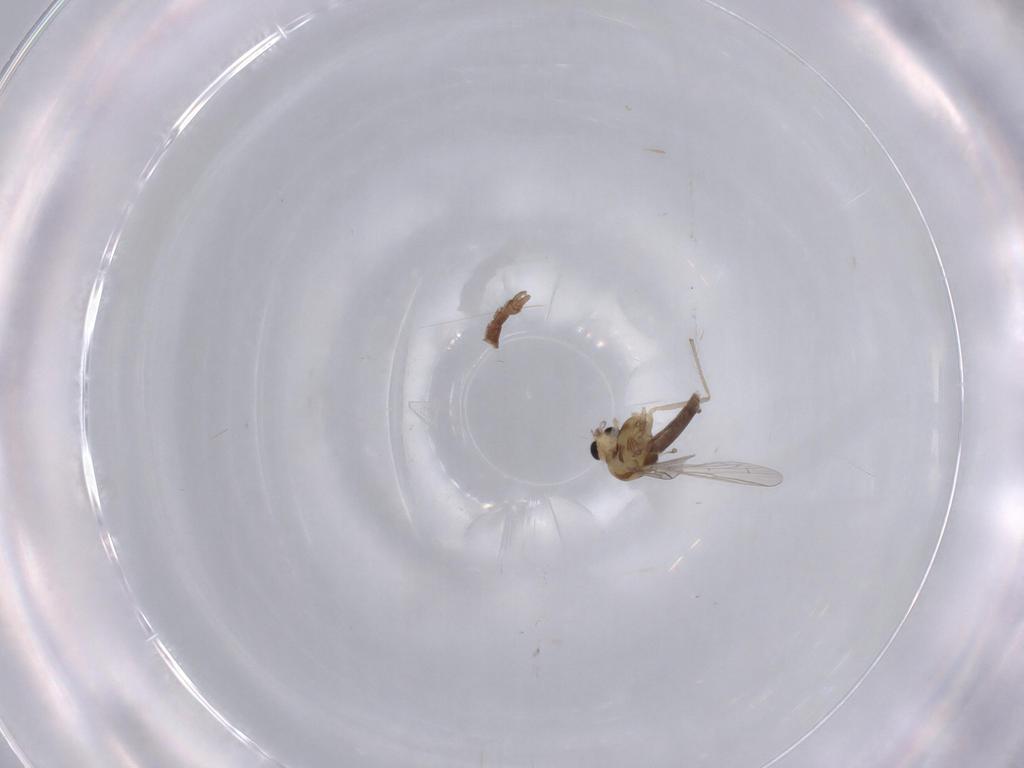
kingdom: Animalia
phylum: Arthropoda
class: Insecta
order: Diptera
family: Chironomidae
